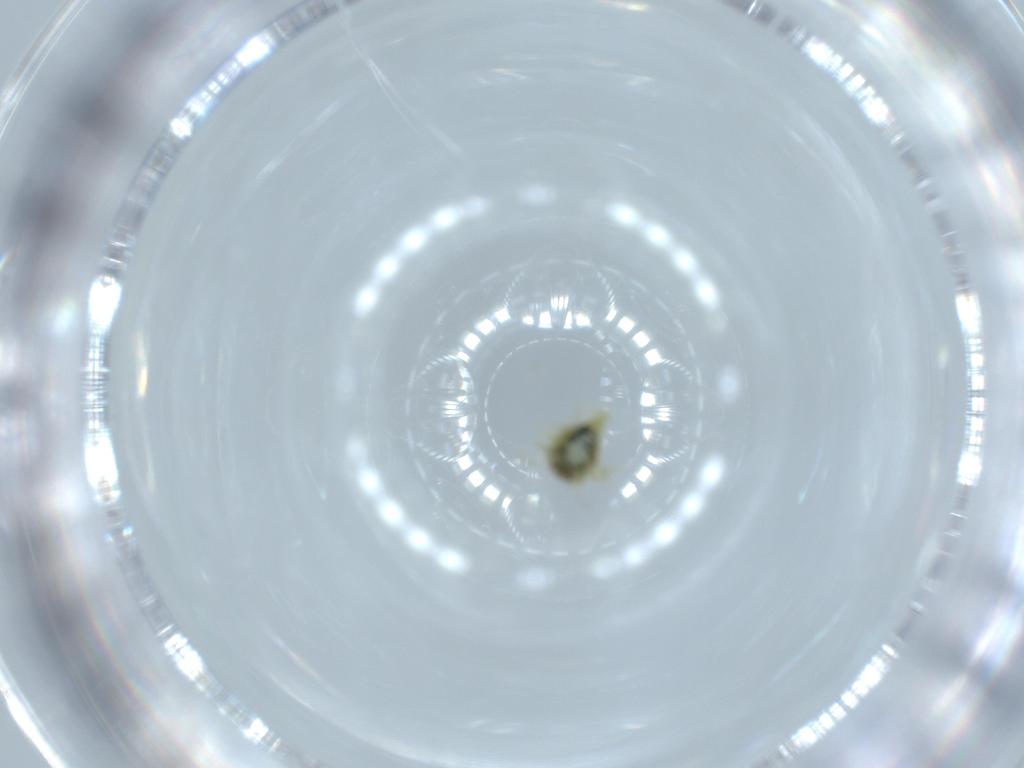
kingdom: Animalia
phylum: Arthropoda
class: Insecta
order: Neuroptera
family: Coniopterygidae
